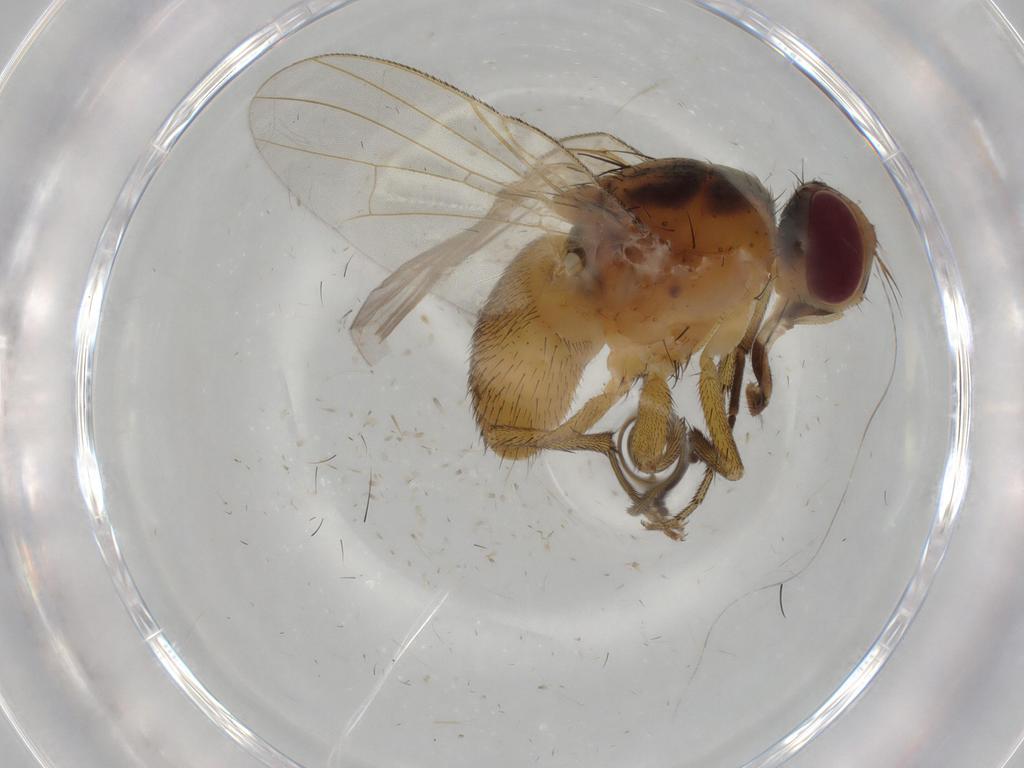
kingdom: Animalia
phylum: Arthropoda
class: Insecta
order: Diptera
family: Muscidae
